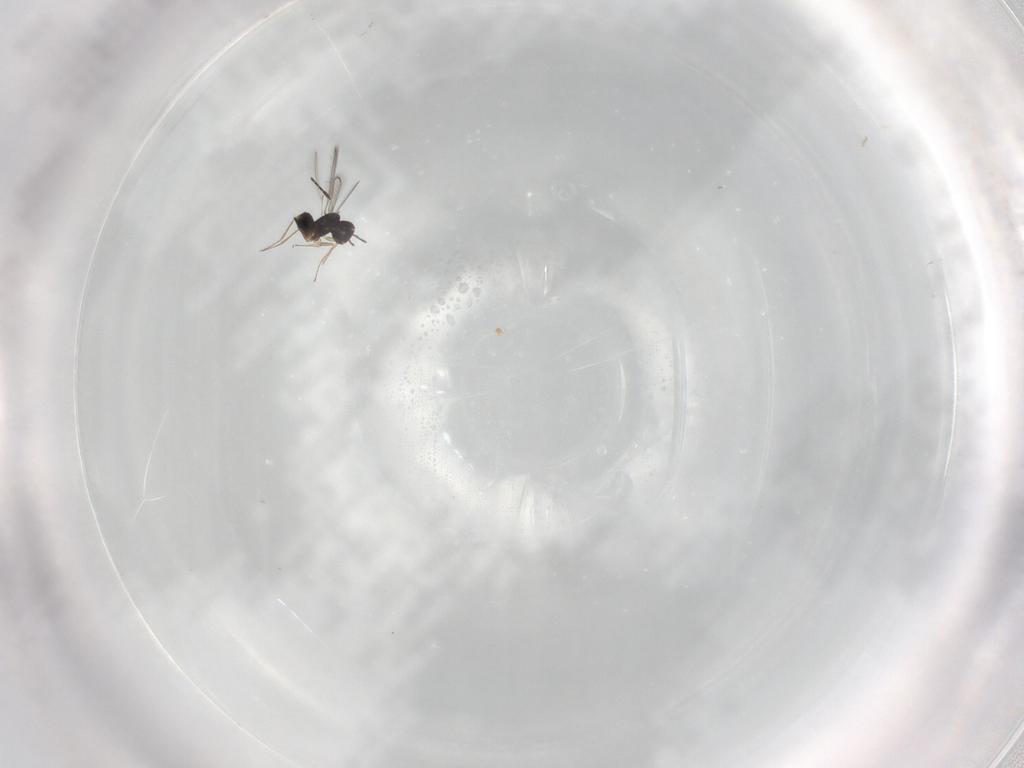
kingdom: Animalia
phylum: Arthropoda
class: Insecta
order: Hymenoptera
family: Mymaridae
